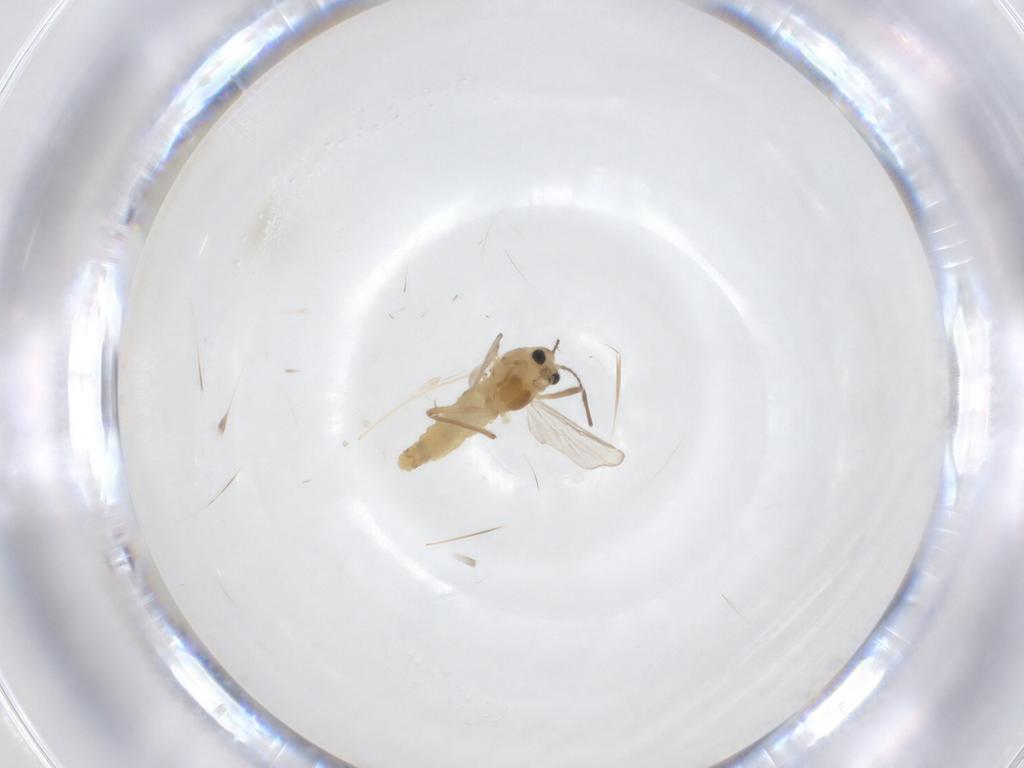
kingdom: Animalia
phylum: Arthropoda
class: Insecta
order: Diptera
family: Chironomidae
